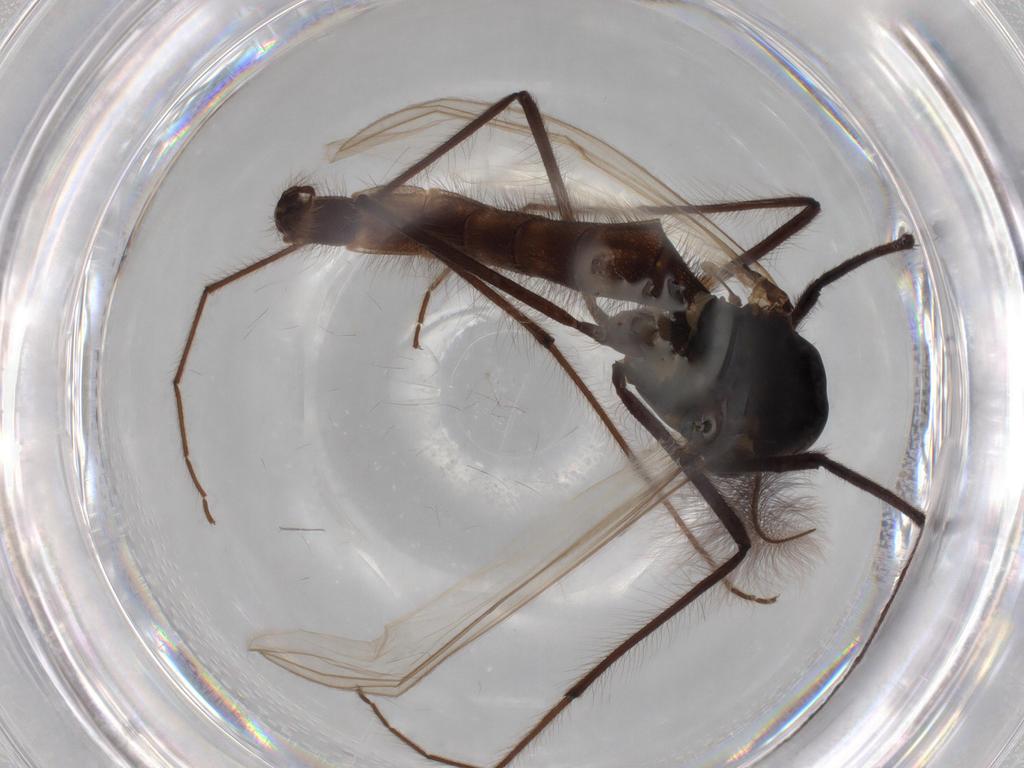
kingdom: Animalia
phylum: Arthropoda
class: Insecta
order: Diptera
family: Chironomidae
